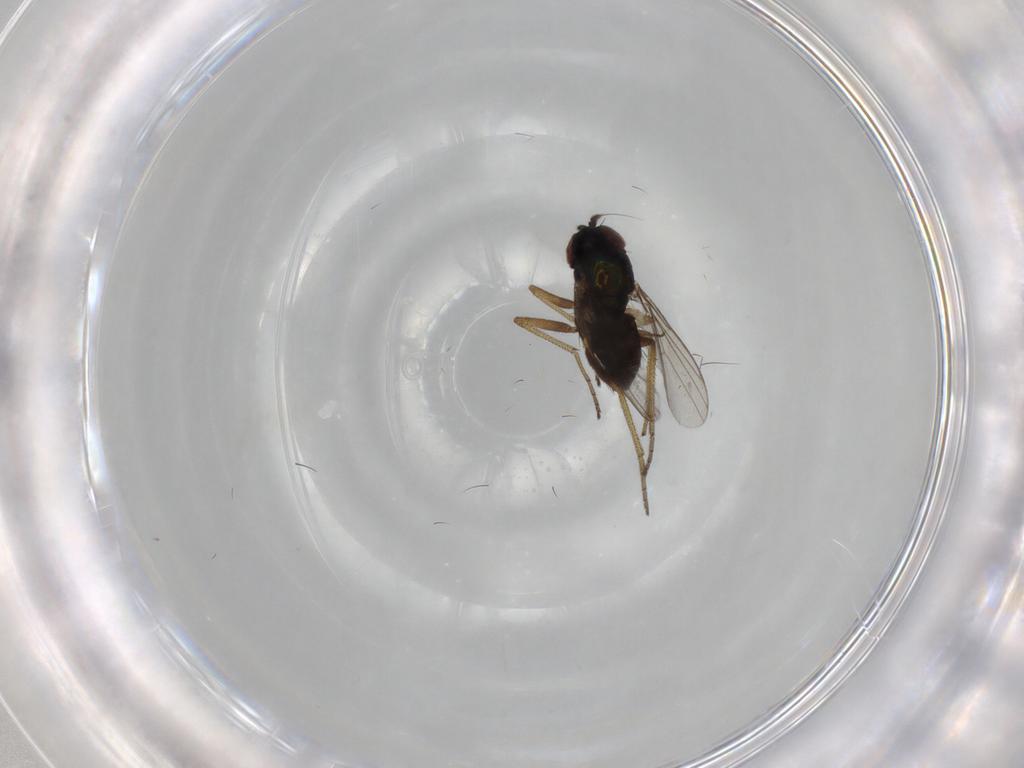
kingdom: Animalia
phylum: Arthropoda
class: Insecta
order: Diptera
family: Dolichopodidae
